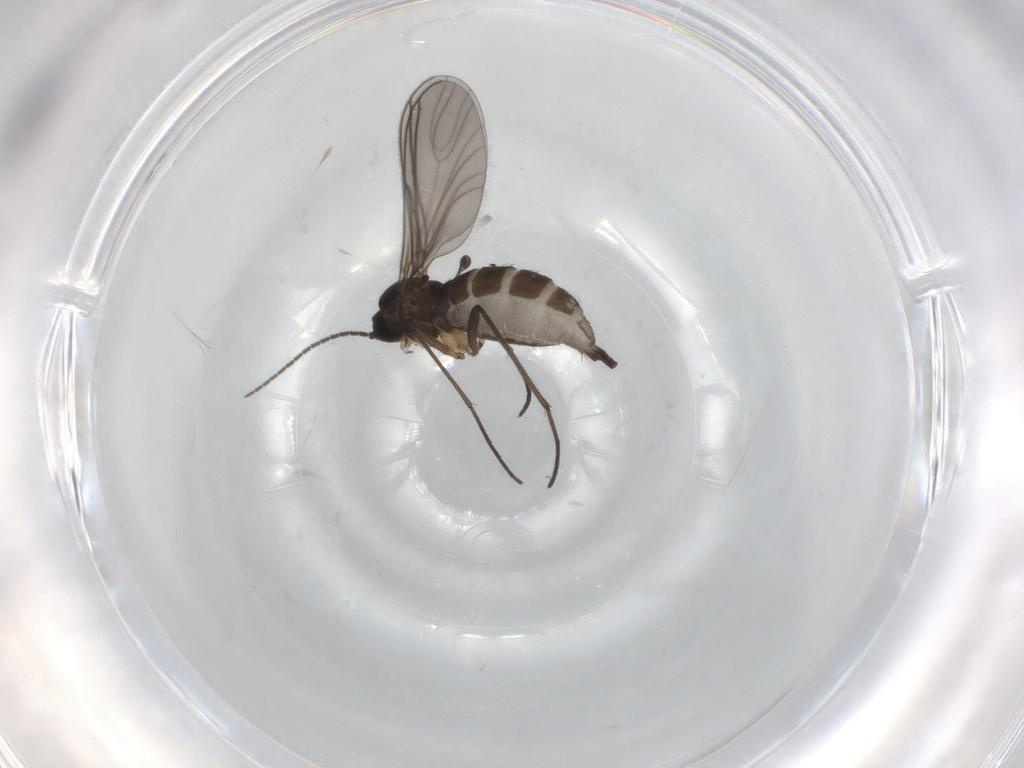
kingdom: Animalia
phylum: Arthropoda
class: Insecta
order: Diptera
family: Sciaridae
